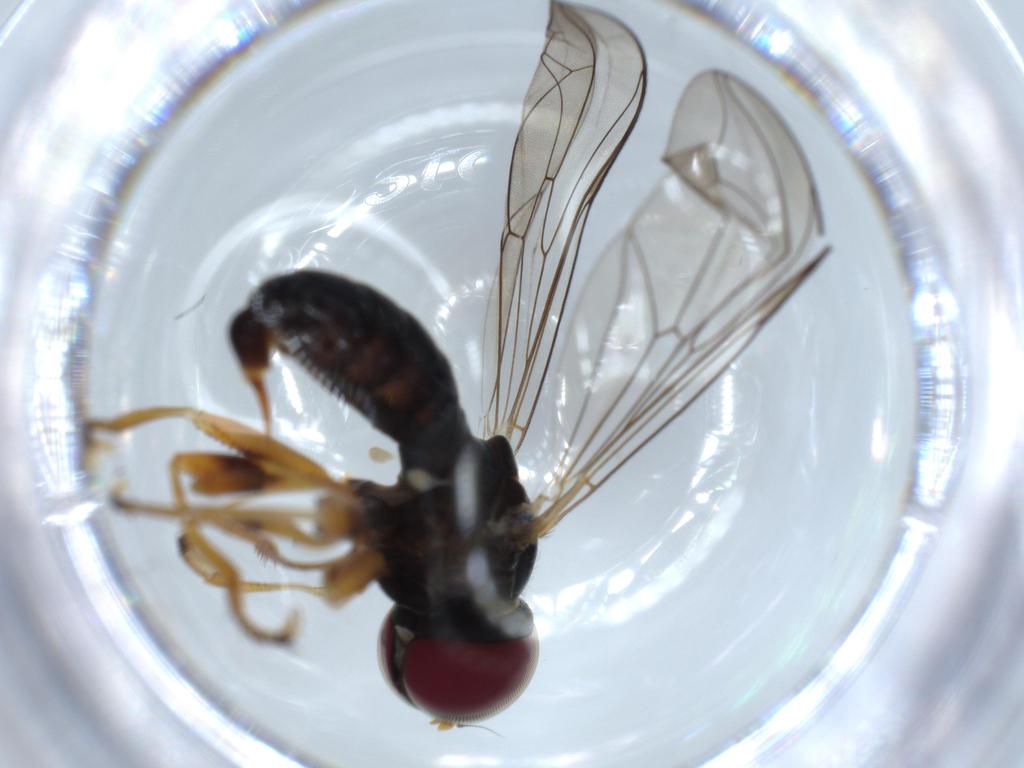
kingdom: Animalia
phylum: Arthropoda
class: Insecta
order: Diptera
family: Pipunculidae
